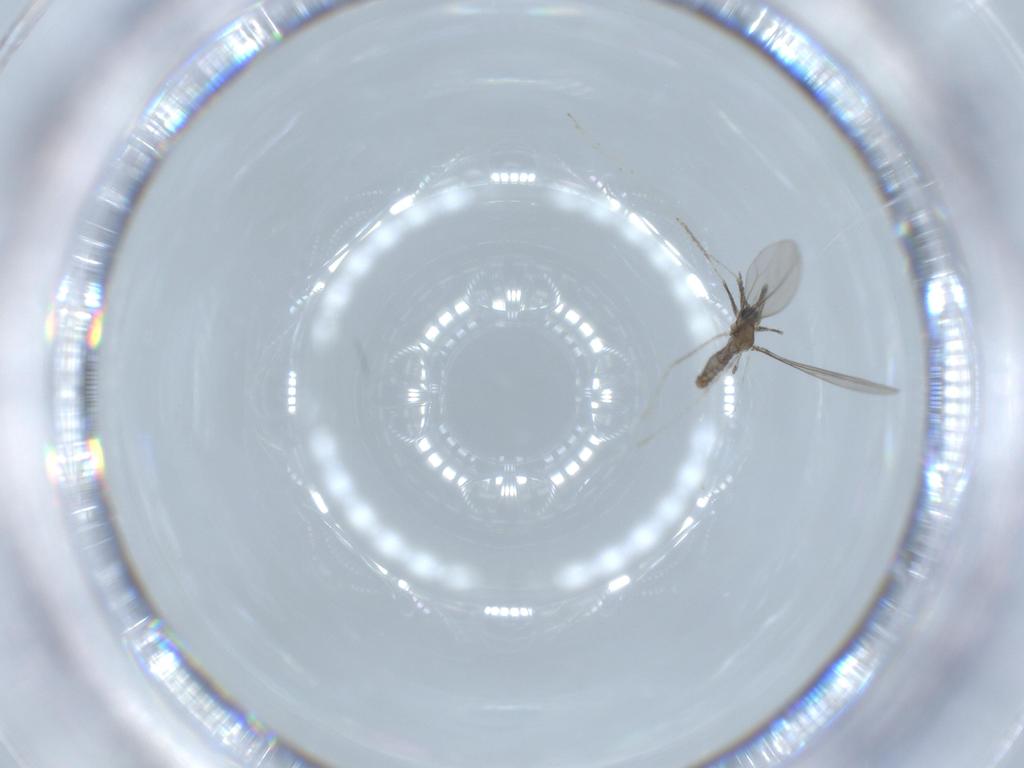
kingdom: Animalia
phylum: Arthropoda
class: Insecta
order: Diptera
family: Cecidomyiidae
